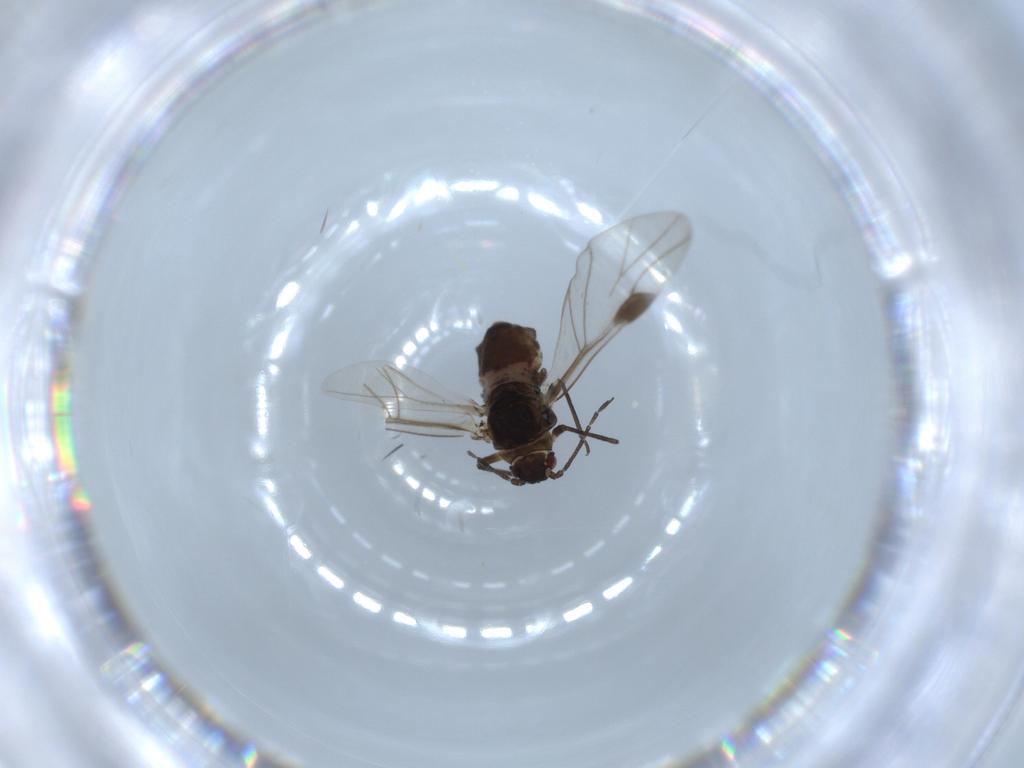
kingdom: Animalia
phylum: Arthropoda
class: Insecta
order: Hemiptera
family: Aphididae
